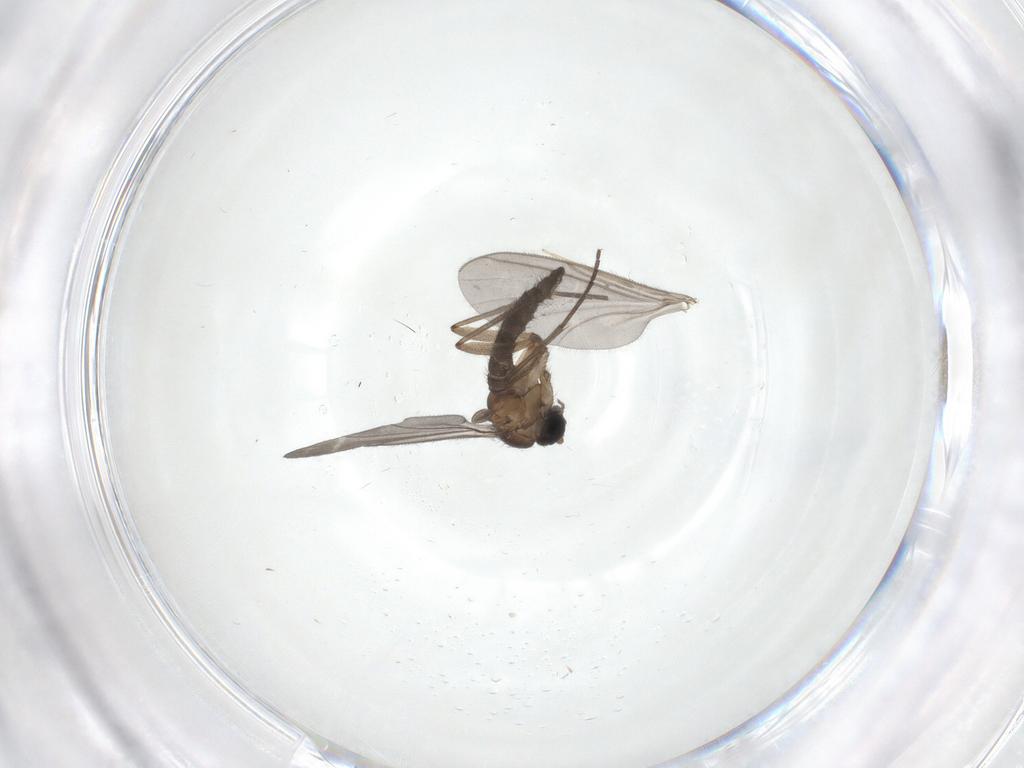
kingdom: Animalia
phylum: Arthropoda
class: Insecta
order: Diptera
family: Sciaridae
